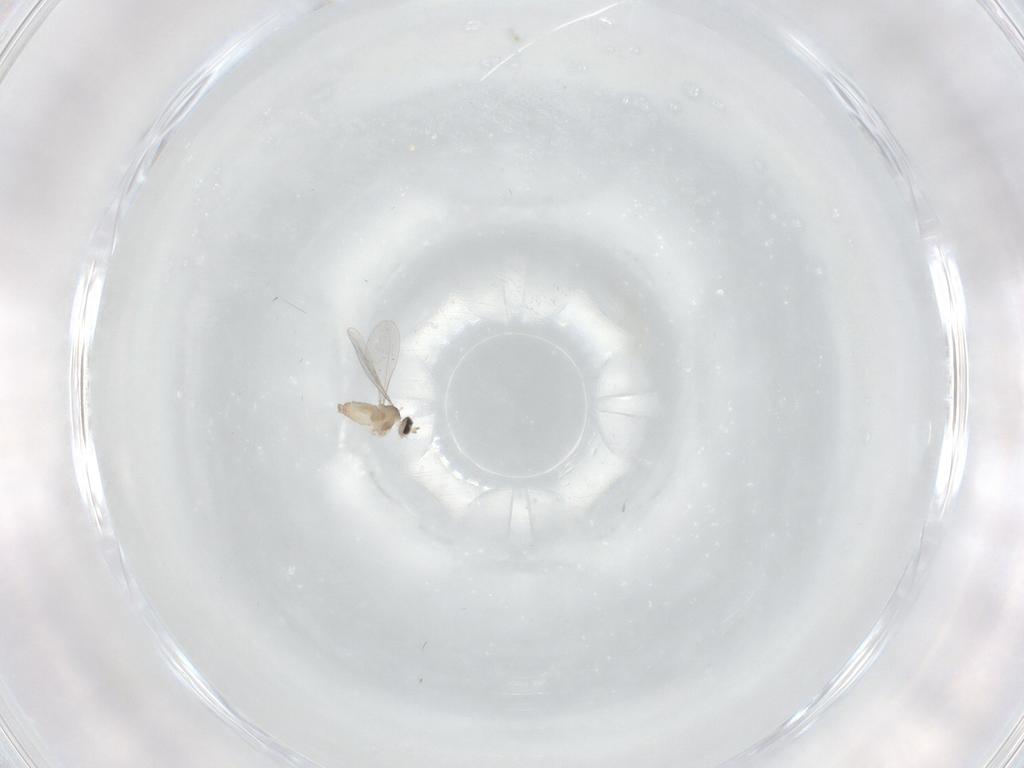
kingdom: Animalia
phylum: Arthropoda
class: Insecta
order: Diptera
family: Cecidomyiidae
